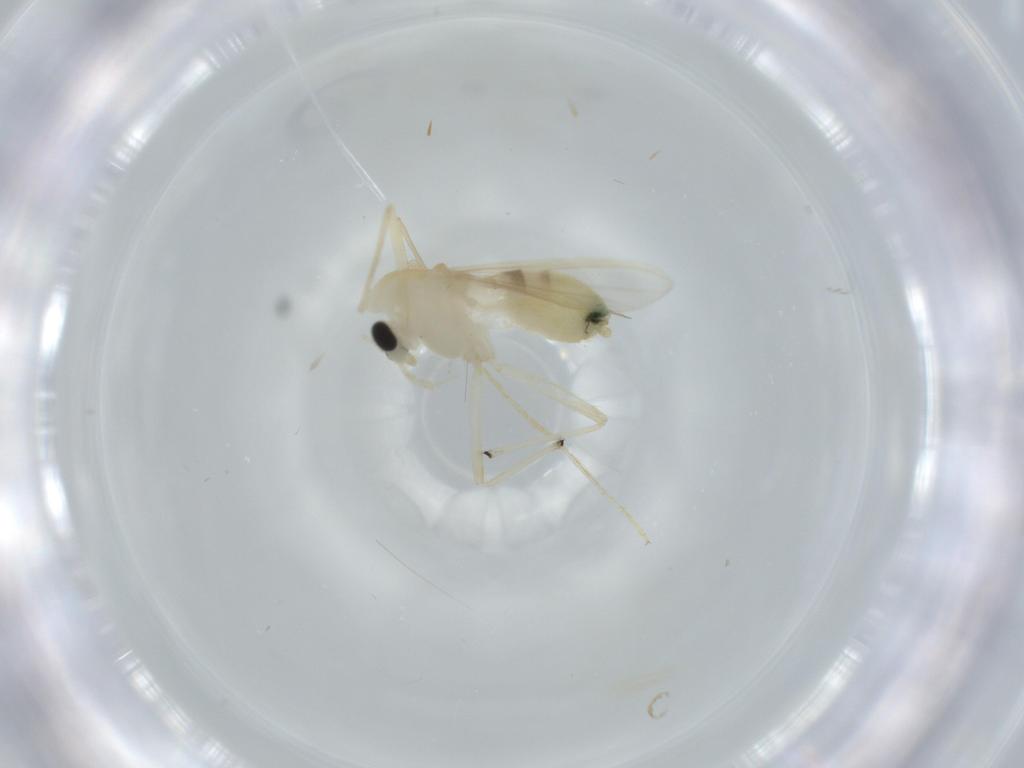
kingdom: Animalia
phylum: Arthropoda
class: Insecta
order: Diptera
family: Chironomidae
